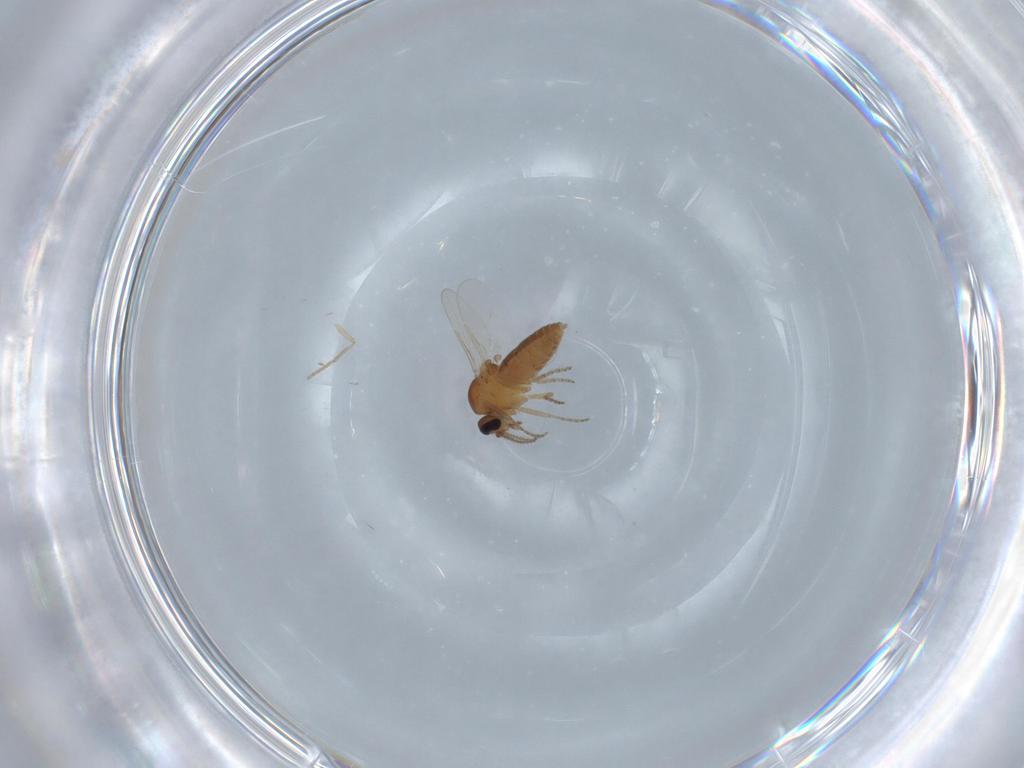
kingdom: Animalia
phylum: Arthropoda
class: Insecta
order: Diptera
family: Ceratopogonidae
